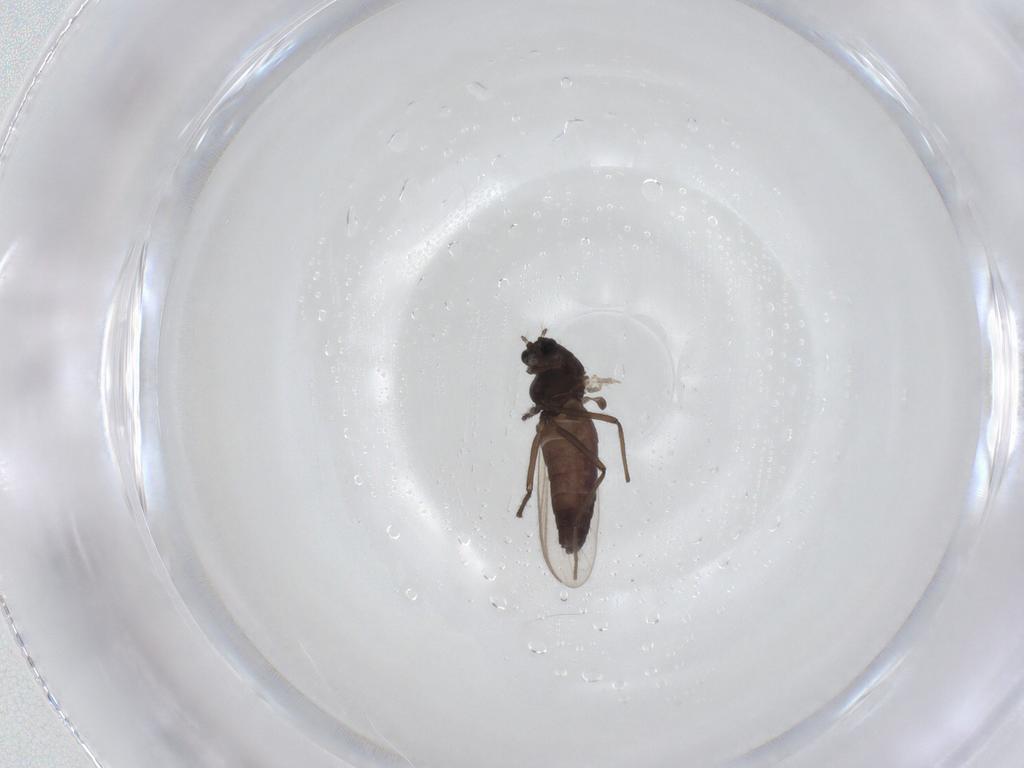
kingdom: Animalia
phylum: Arthropoda
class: Insecta
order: Diptera
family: Chironomidae
